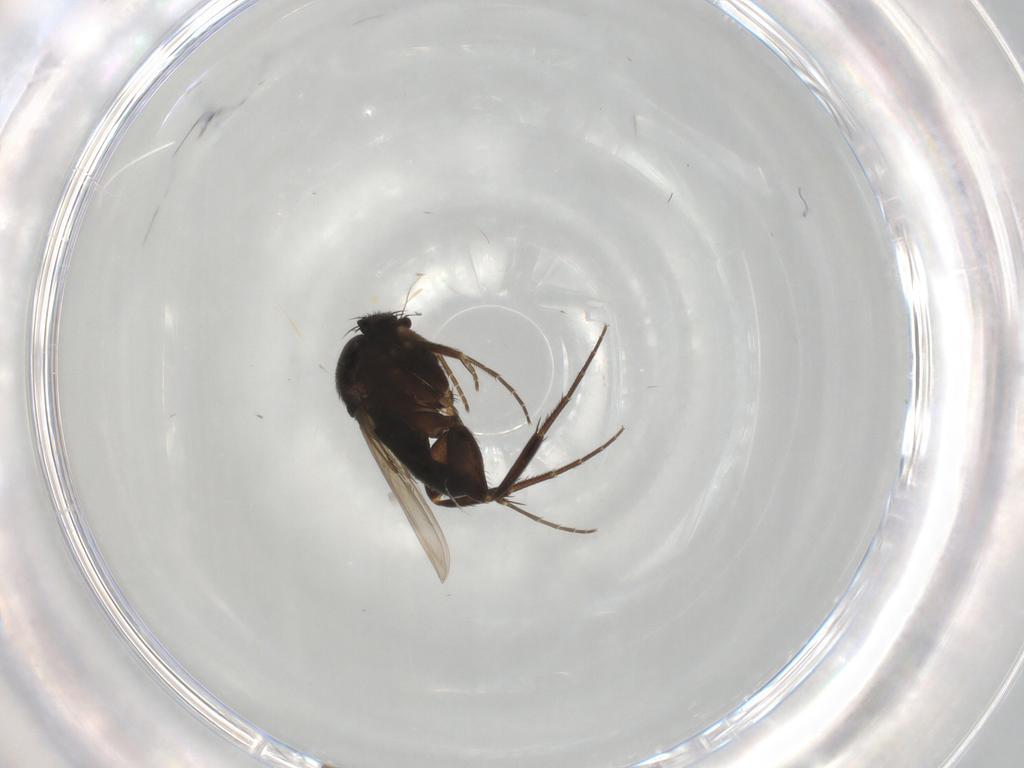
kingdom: Animalia
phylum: Arthropoda
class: Insecta
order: Diptera
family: Phoridae
